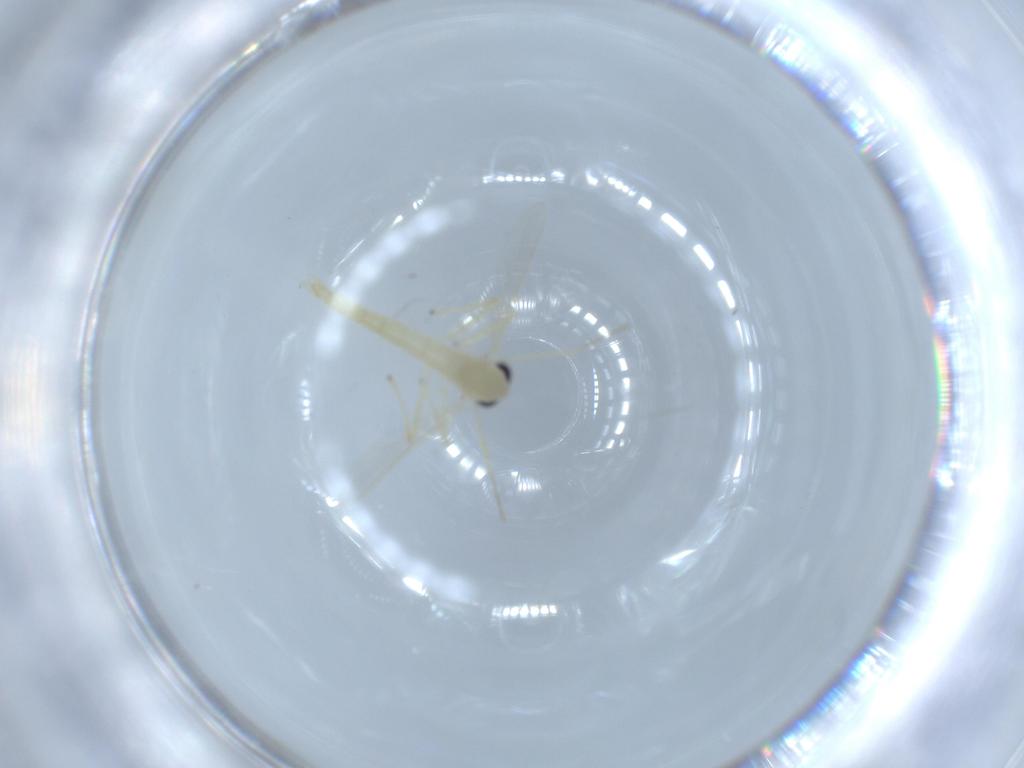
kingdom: Animalia
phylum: Arthropoda
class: Insecta
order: Diptera
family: Chironomidae
